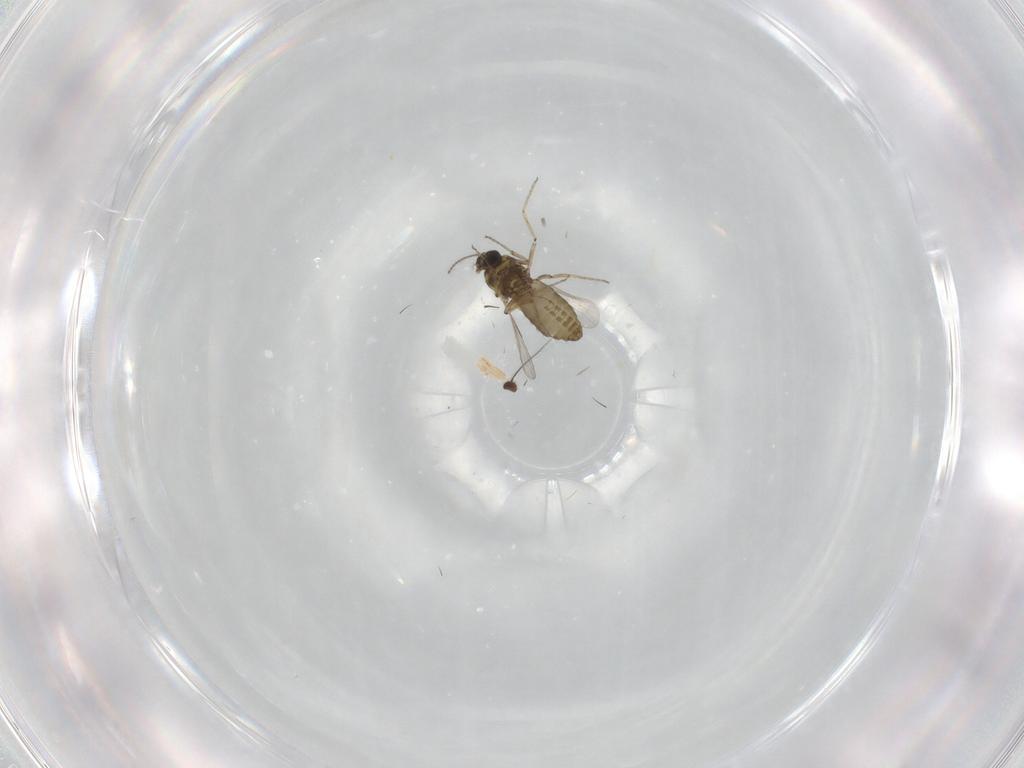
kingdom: Animalia
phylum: Arthropoda
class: Insecta
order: Diptera
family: Ceratopogonidae
